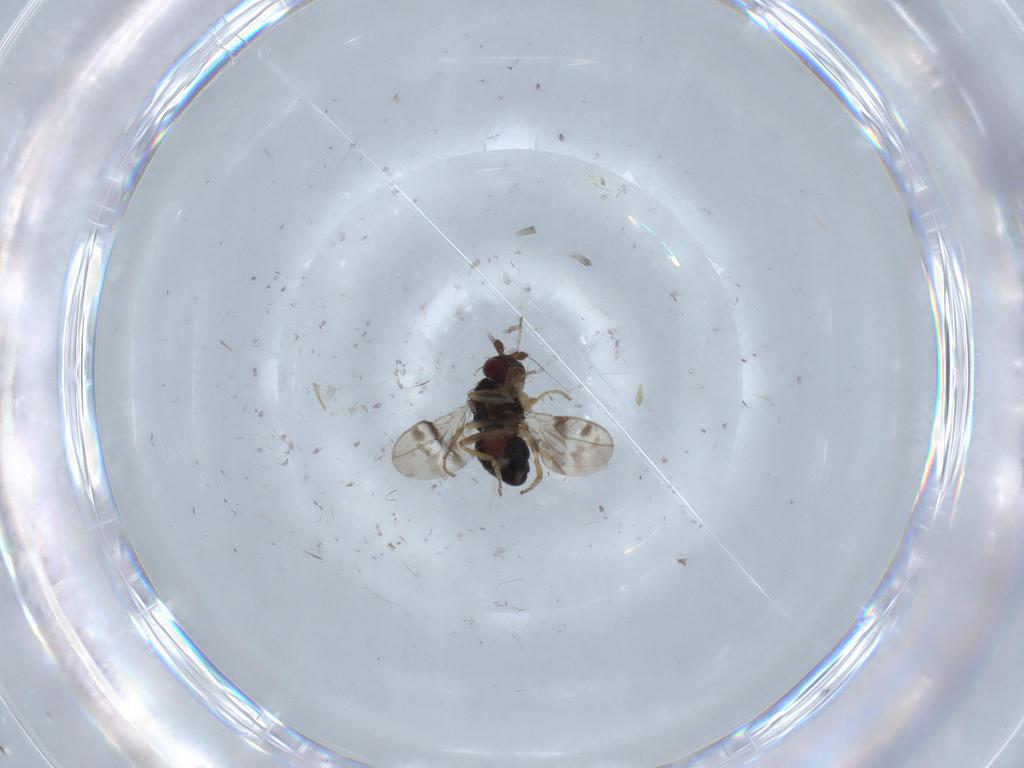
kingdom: Animalia
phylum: Arthropoda
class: Insecta
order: Diptera
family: Sphaeroceridae
